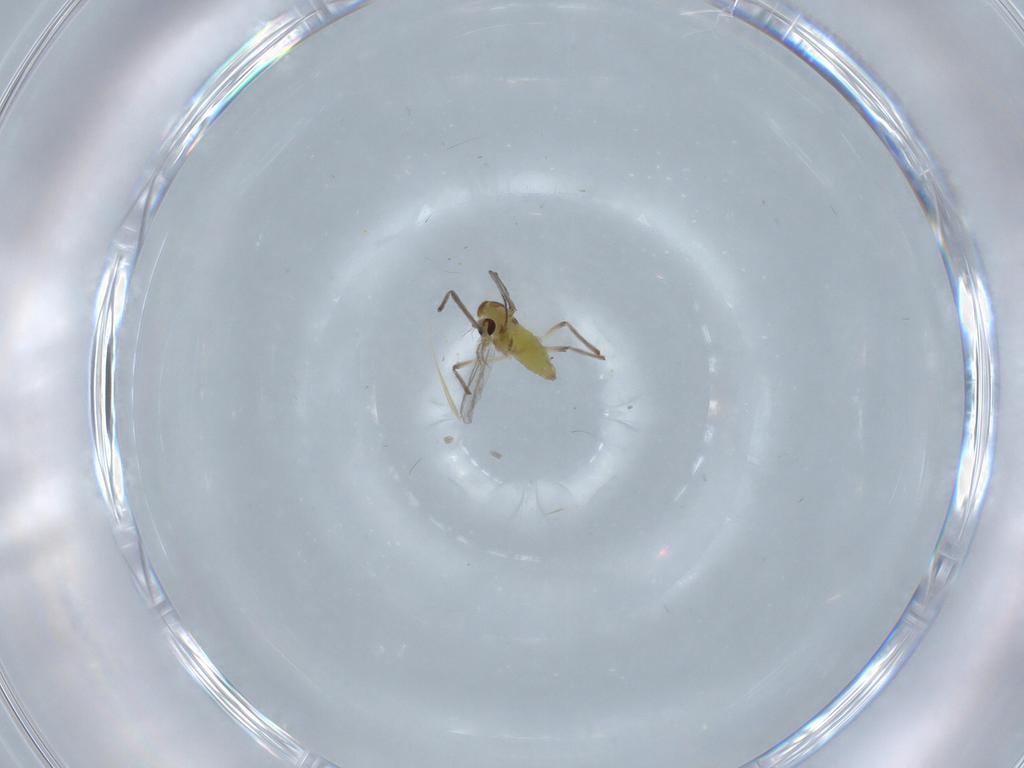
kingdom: Animalia
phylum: Arthropoda
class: Insecta
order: Diptera
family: Chironomidae
